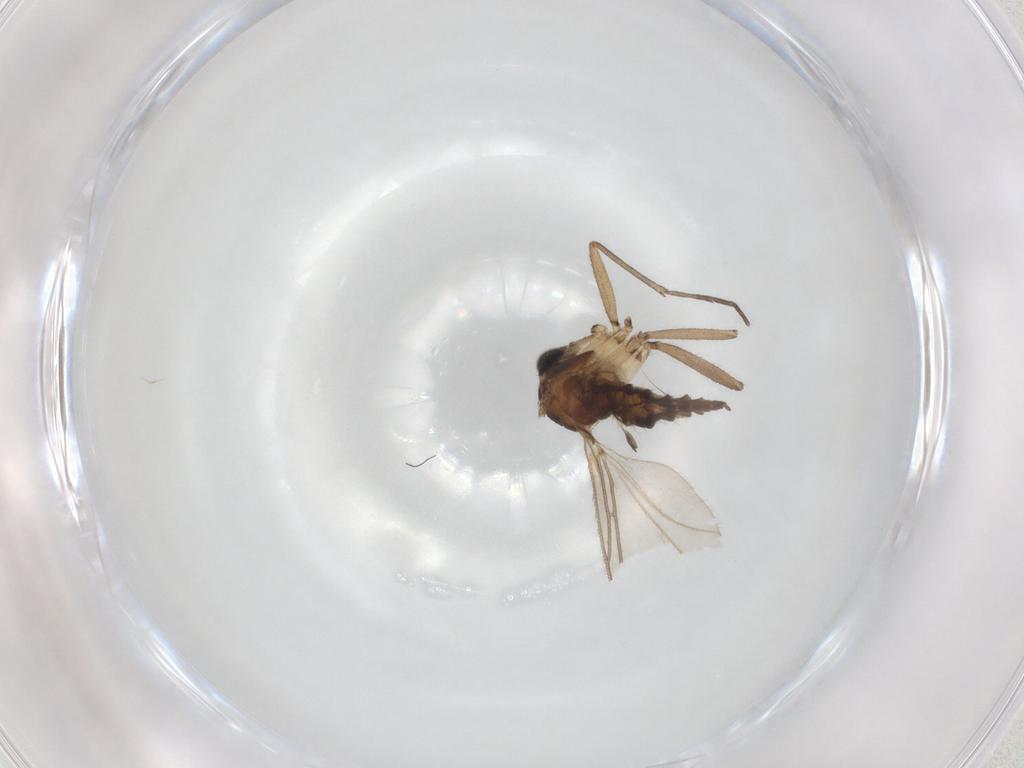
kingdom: Animalia
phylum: Arthropoda
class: Insecta
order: Diptera
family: Sciaridae
